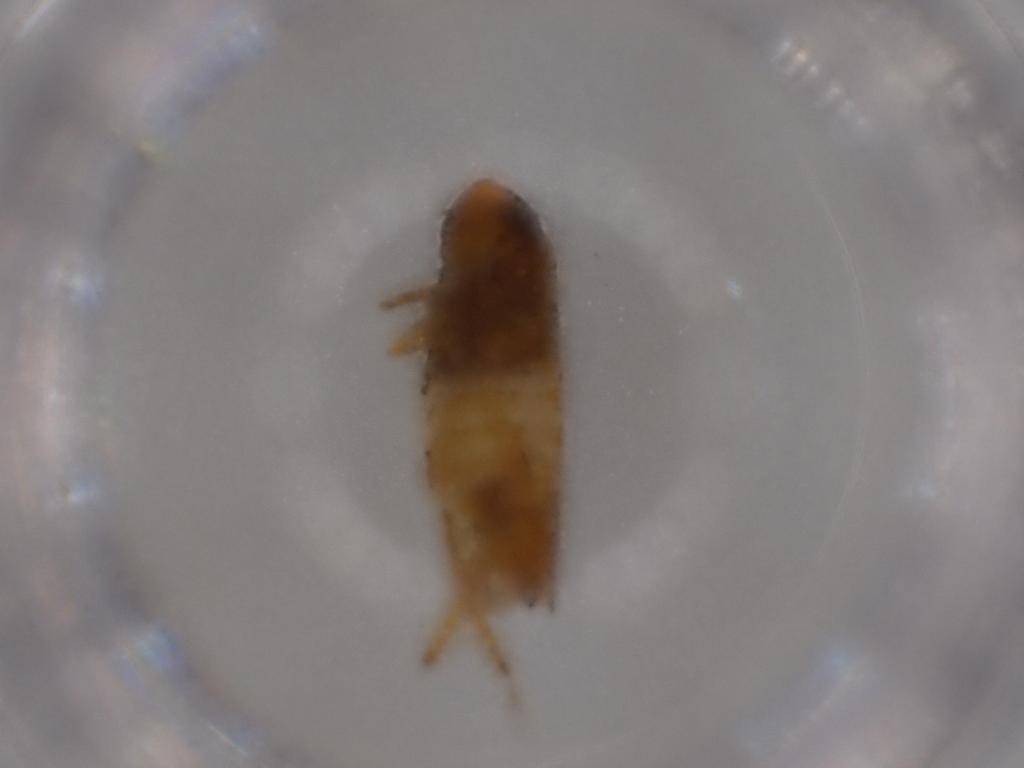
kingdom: Animalia
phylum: Arthropoda
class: Insecta
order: Hemiptera
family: Cicadellidae
